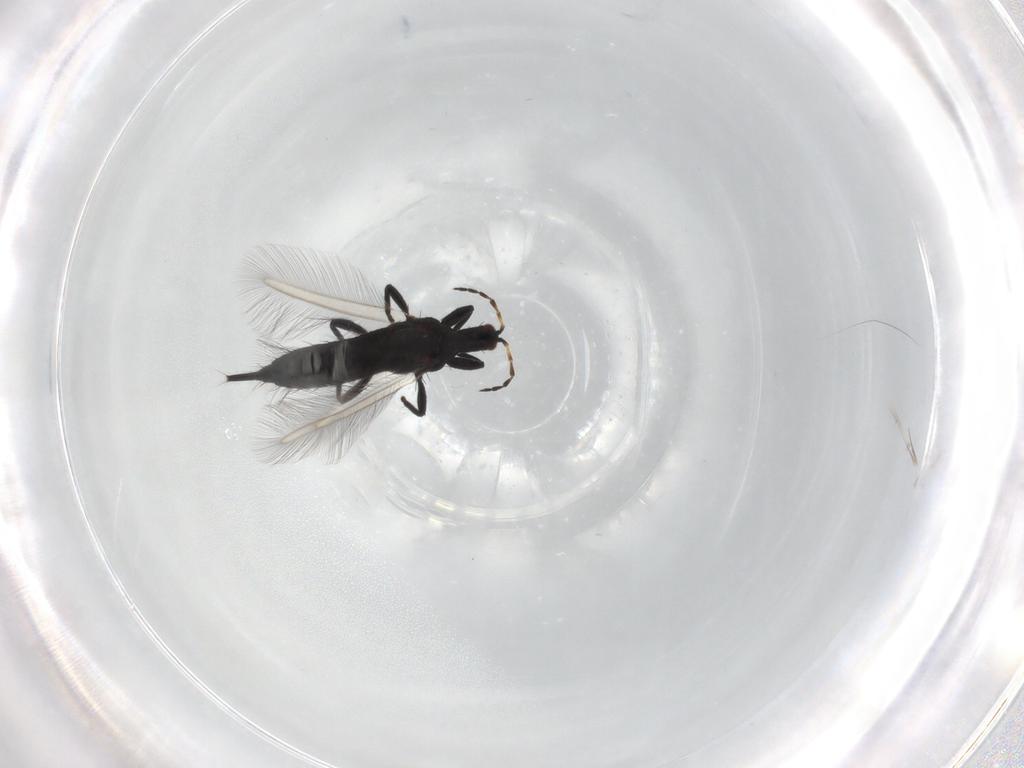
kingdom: Animalia
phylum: Arthropoda
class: Insecta
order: Thysanoptera
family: Phlaeothripidae
